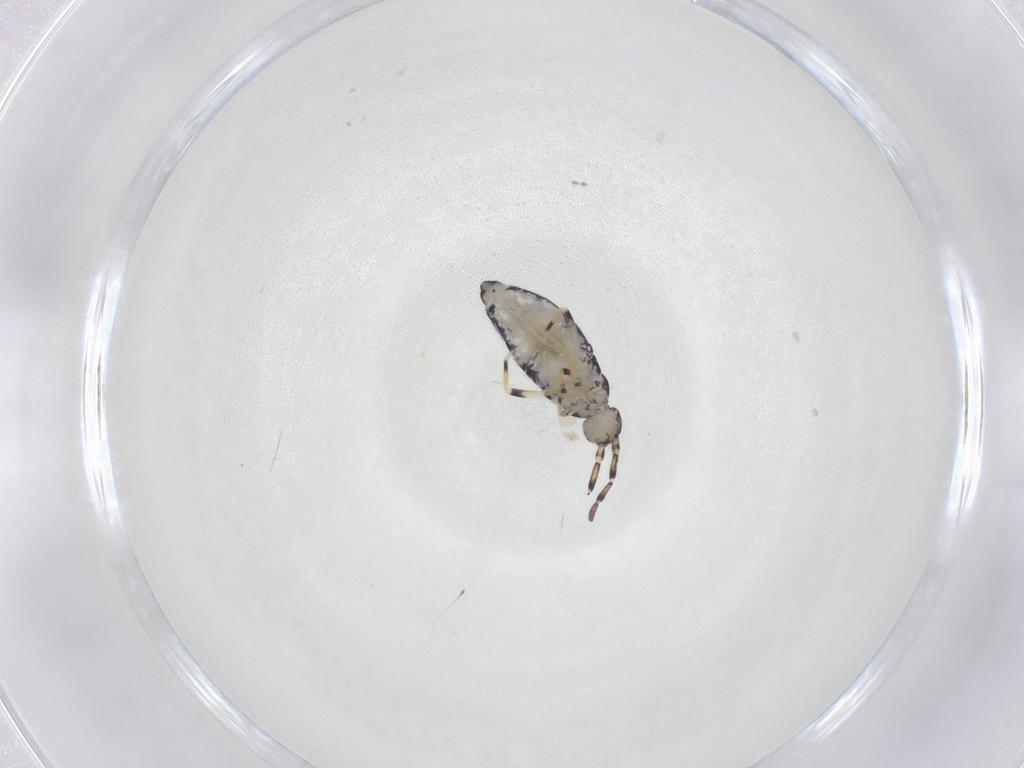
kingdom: Animalia
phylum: Arthropoda
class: Collembola
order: Entomobryomorpha
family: Entomobryidae
